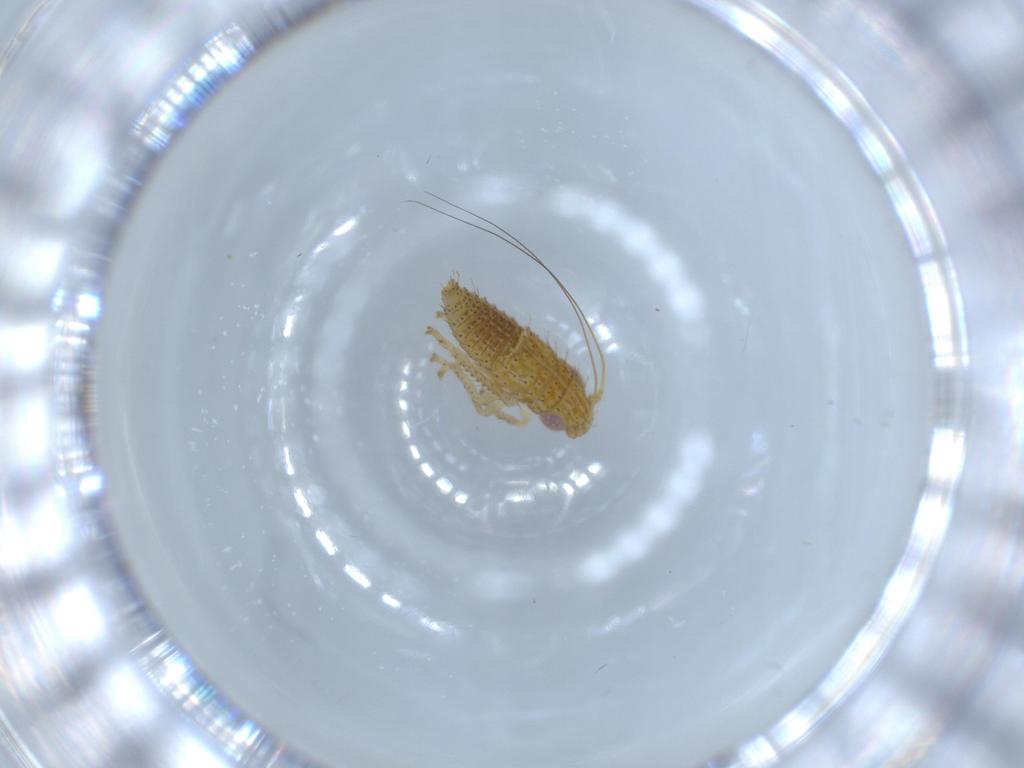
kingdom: Animalia
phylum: Arthropoda
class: Insecta
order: Hemiptera
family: Cicadellidae
